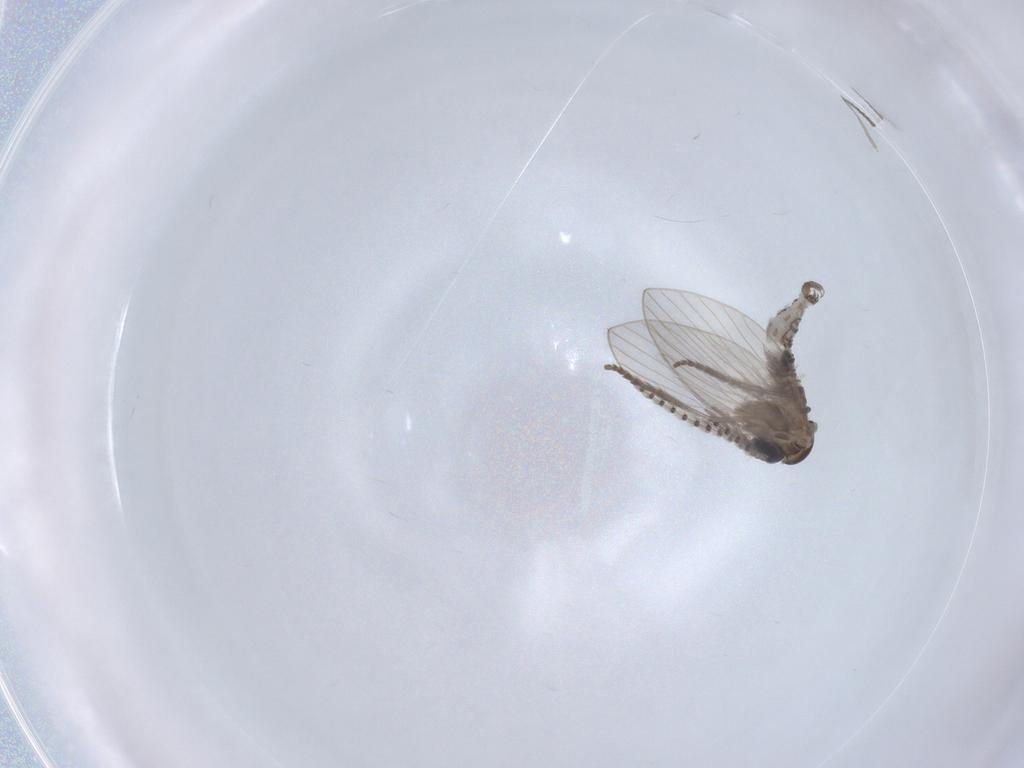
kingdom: Animalia
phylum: Arthropoda
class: Insecta
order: Diptera
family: Psychodidae
